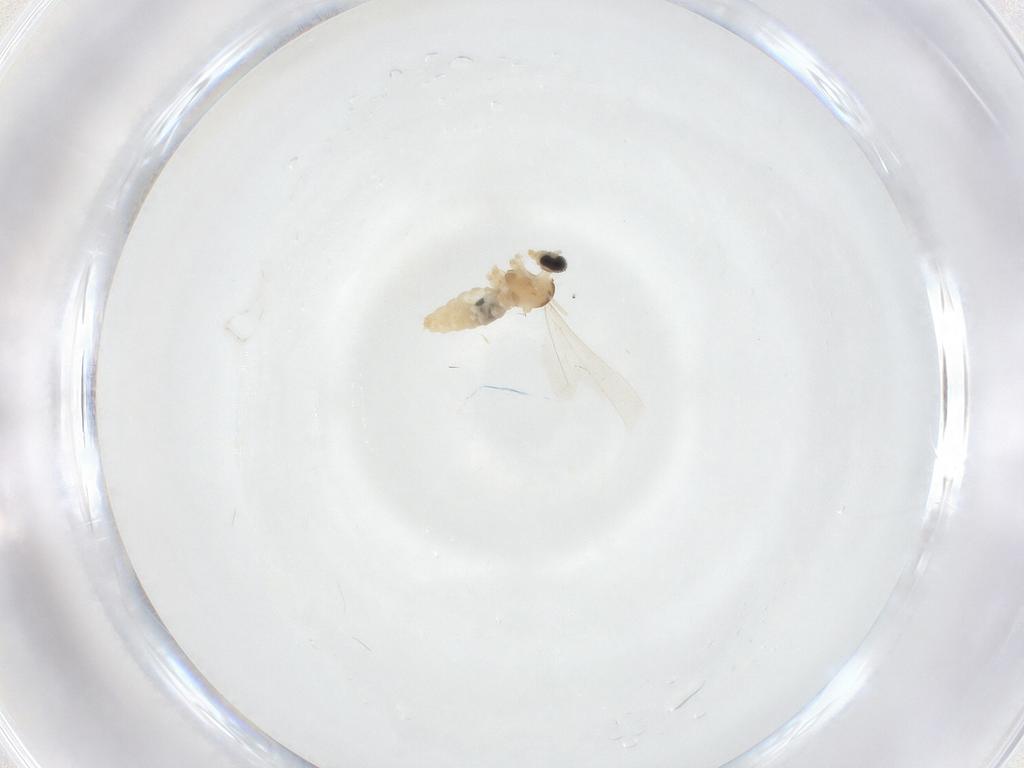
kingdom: Animalia
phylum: Arthropoda
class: Insecta
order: Diptera
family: Cecidomyiidae
